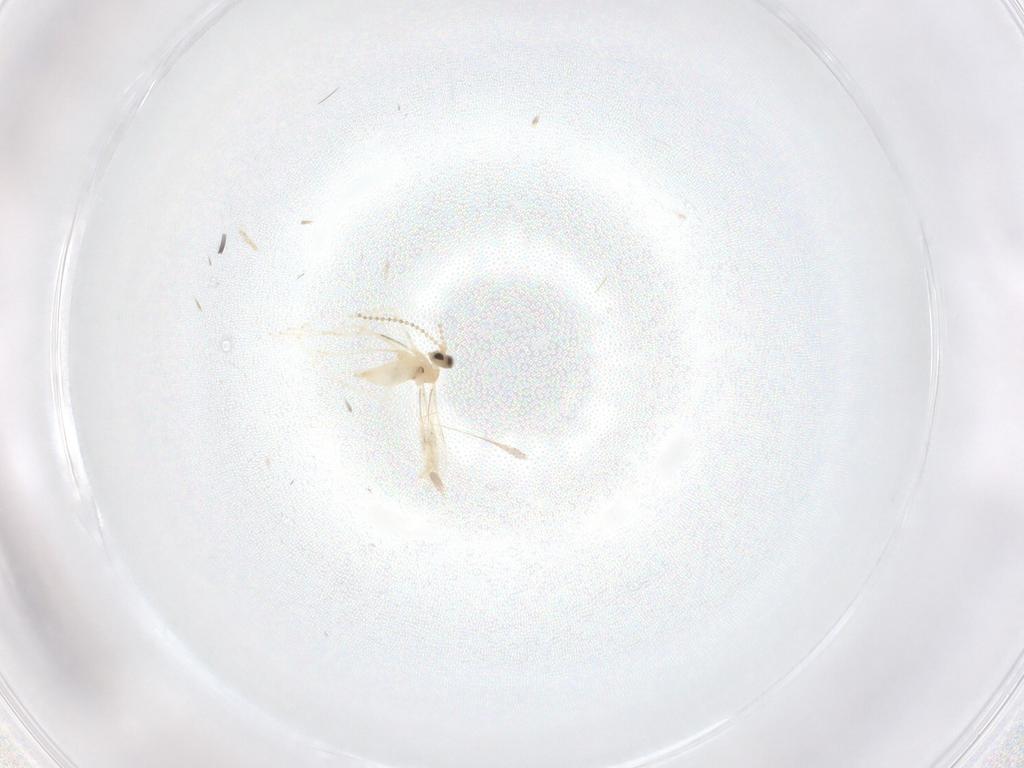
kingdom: Animalia
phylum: Arthropoda
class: Insecta
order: Diptera
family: Cecidomyiidae
